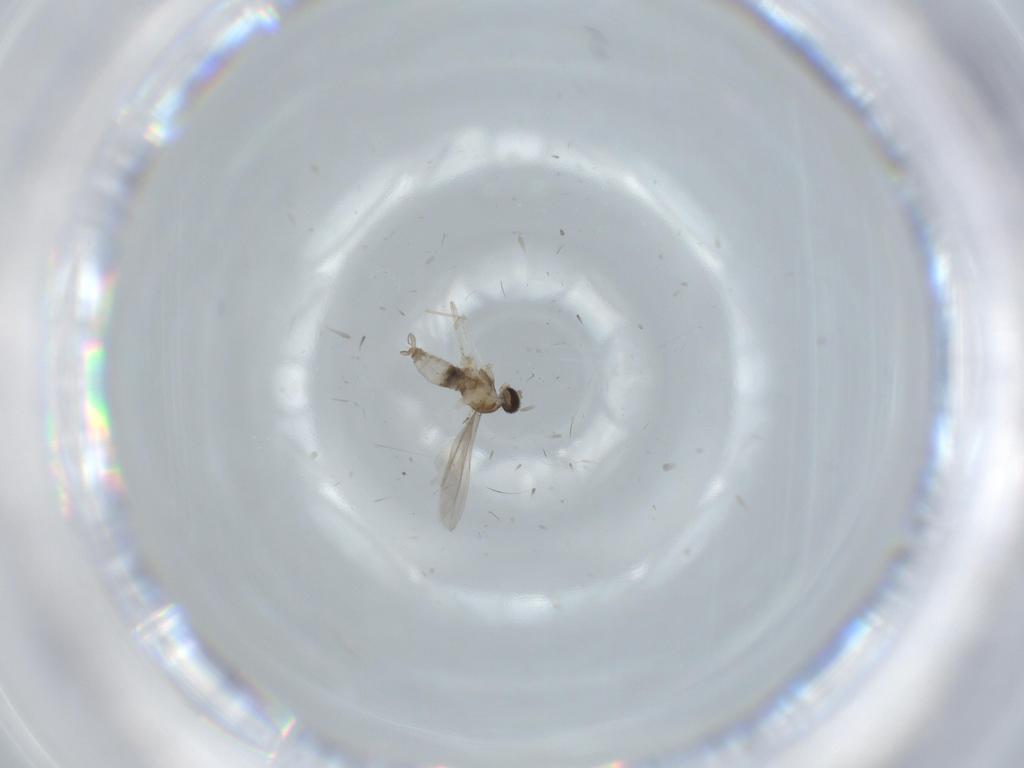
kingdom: Animalia
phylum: Arthropoda
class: Insecta
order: Diptera
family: Drosophilidae
